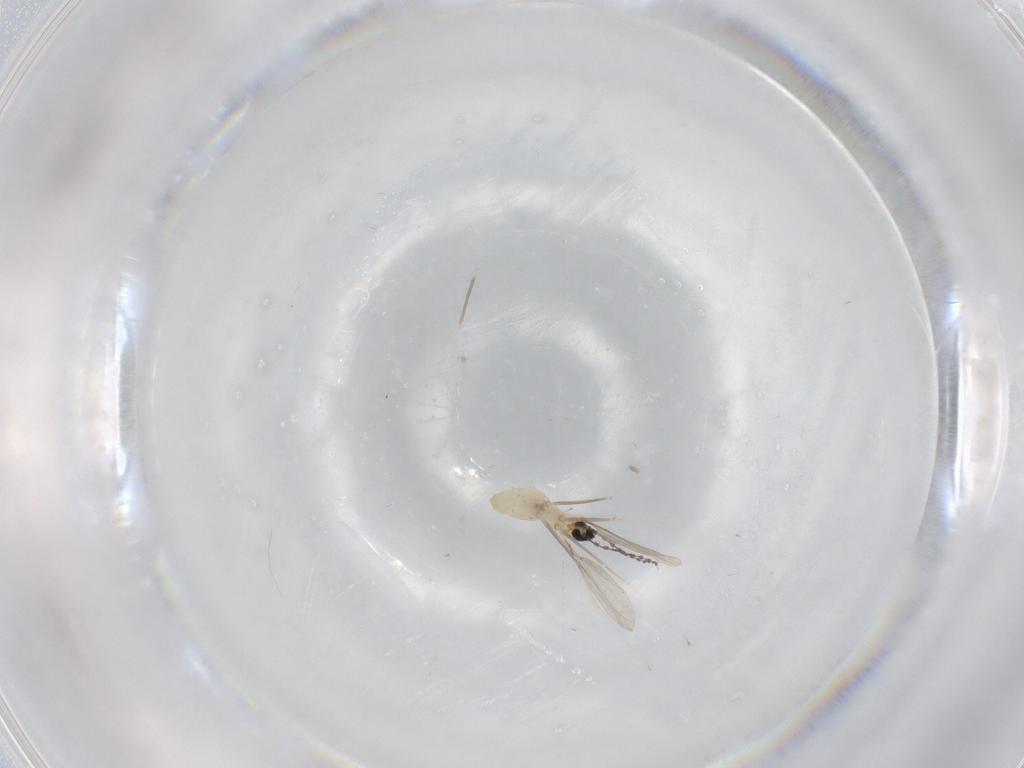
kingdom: Animalia
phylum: Arthropoda
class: Insecta
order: Diptera
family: Cecidomyiidae
